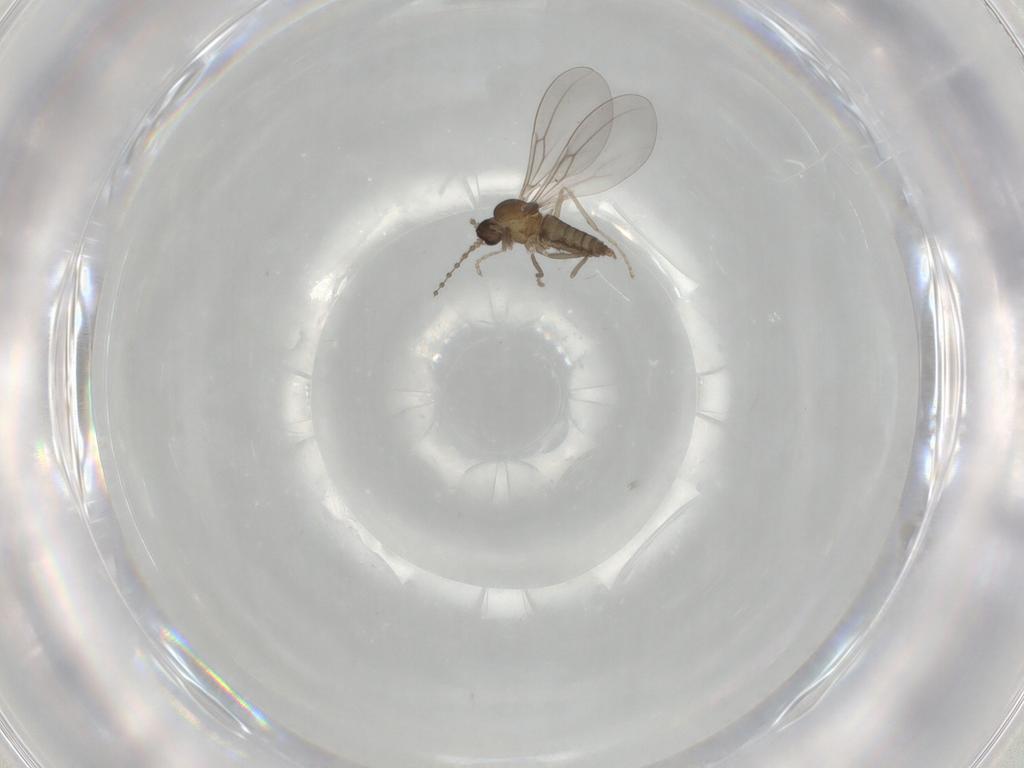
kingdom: Animalia
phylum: Arthropoda
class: Insecta
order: Diptera
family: Cecidomyiidae
